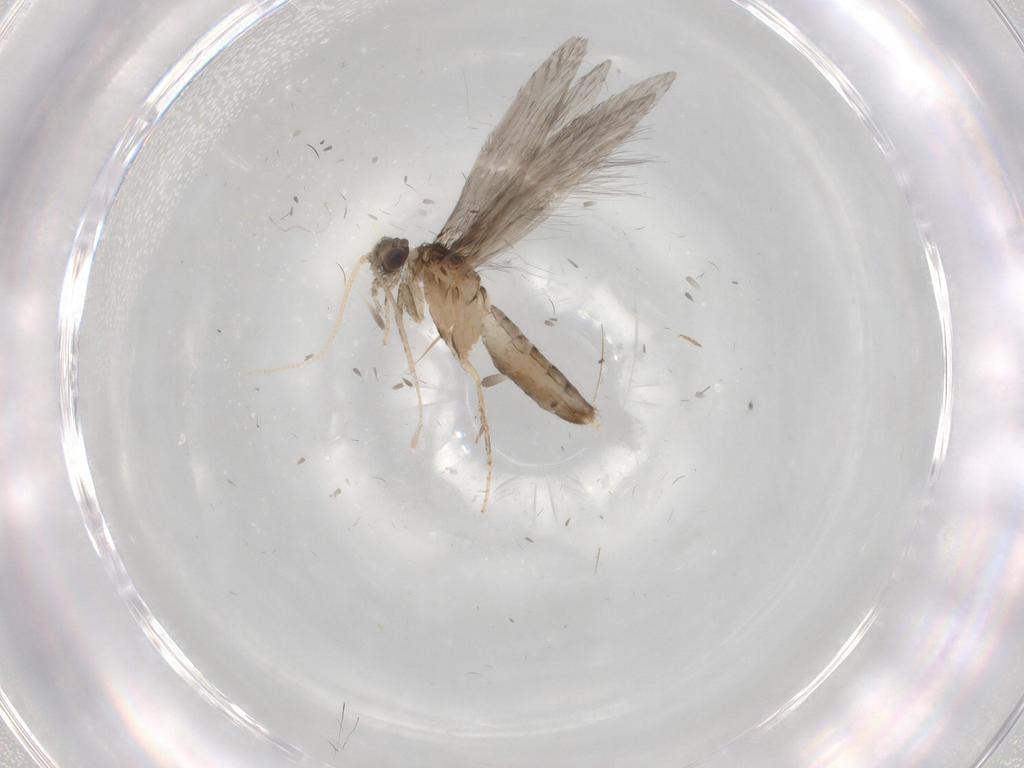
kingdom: Animalia
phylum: Arthropoda
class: Insecta
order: Trichoptera
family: Hydroptilidae
